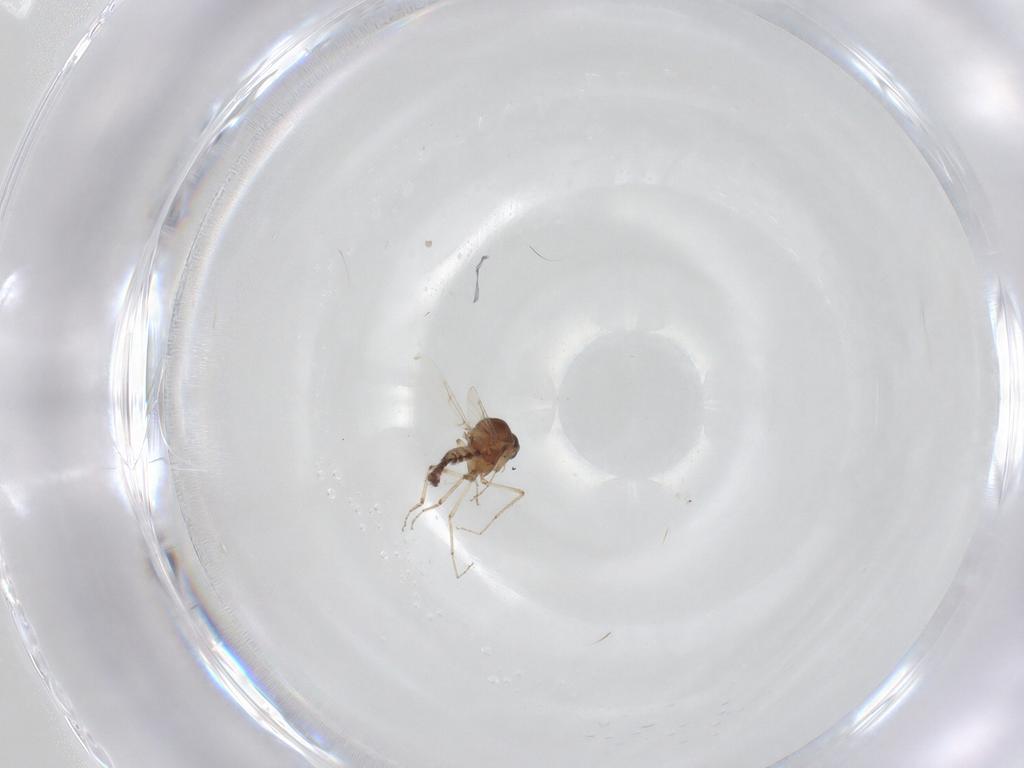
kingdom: Animalia
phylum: Arthropoda
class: Insecta
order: Diptera
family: Ceratopogonidae
